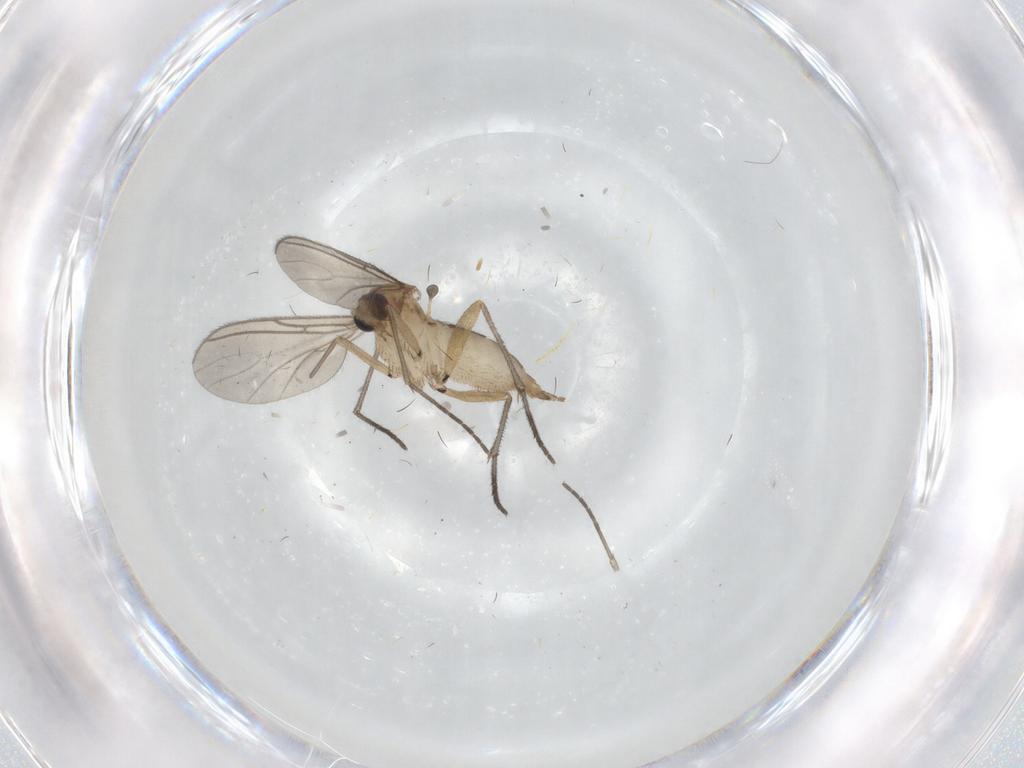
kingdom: Animalia
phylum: Arthropoda
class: Insecta
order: Diptera
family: Sciaridae
